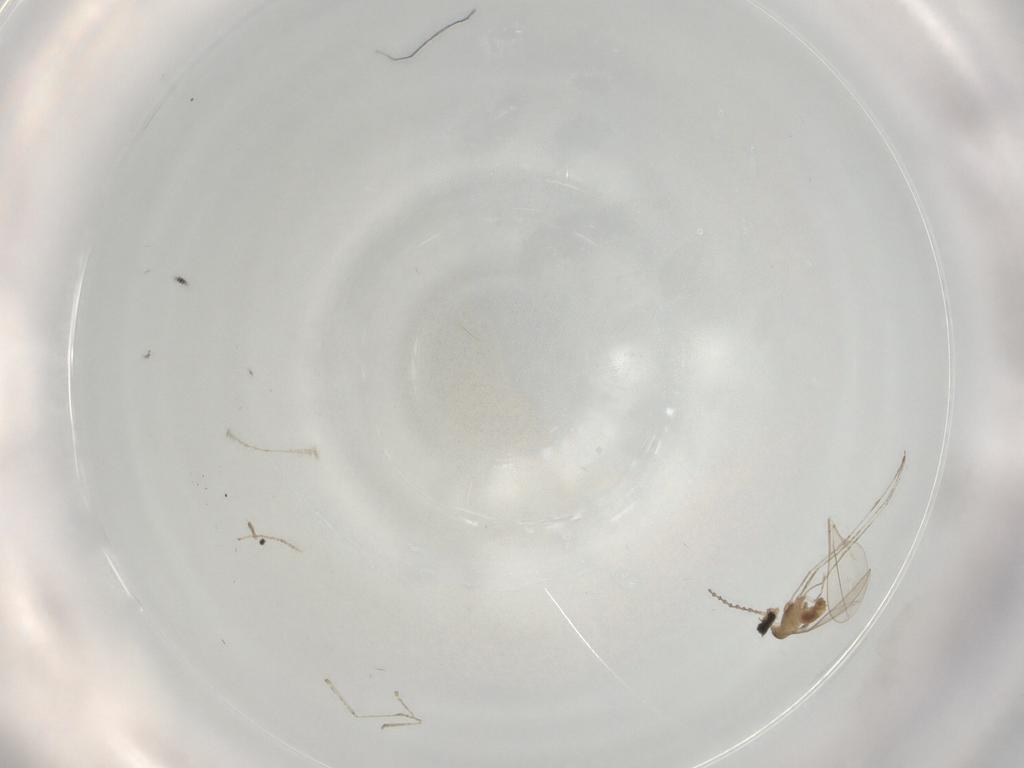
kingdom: Animalia
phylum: Arthropoda
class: Insecta
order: Diptera
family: Cecidomyiidae
